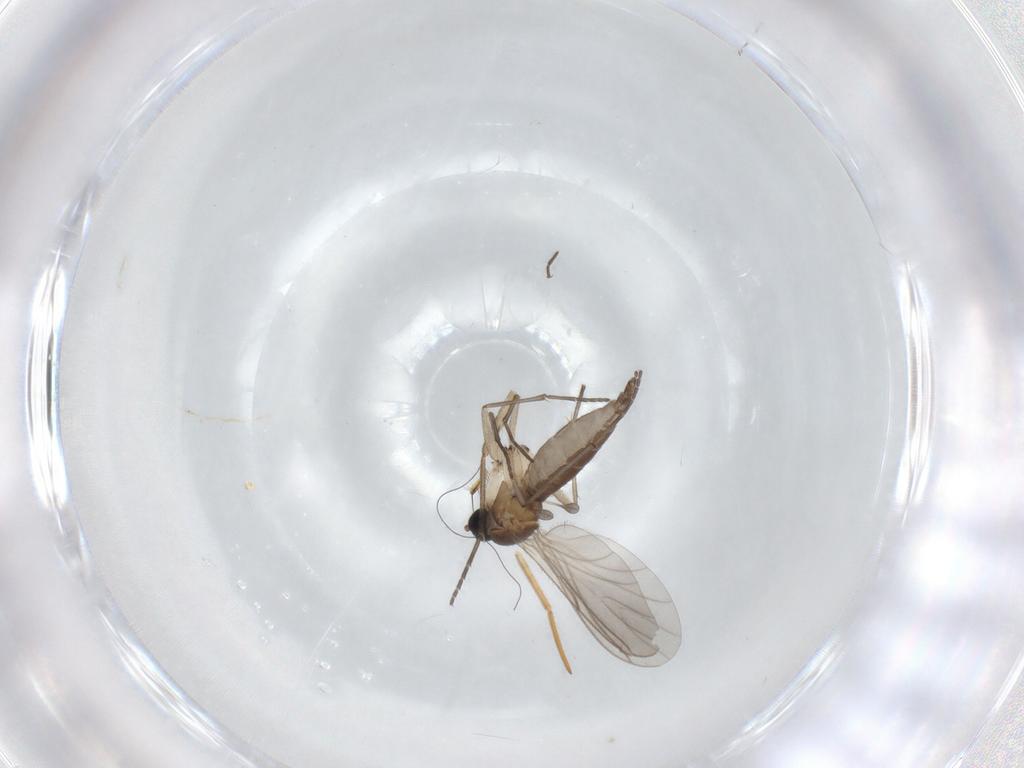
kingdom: Animalia
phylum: Arthropoda
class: Insecta
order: Diptera
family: Sciaridae
